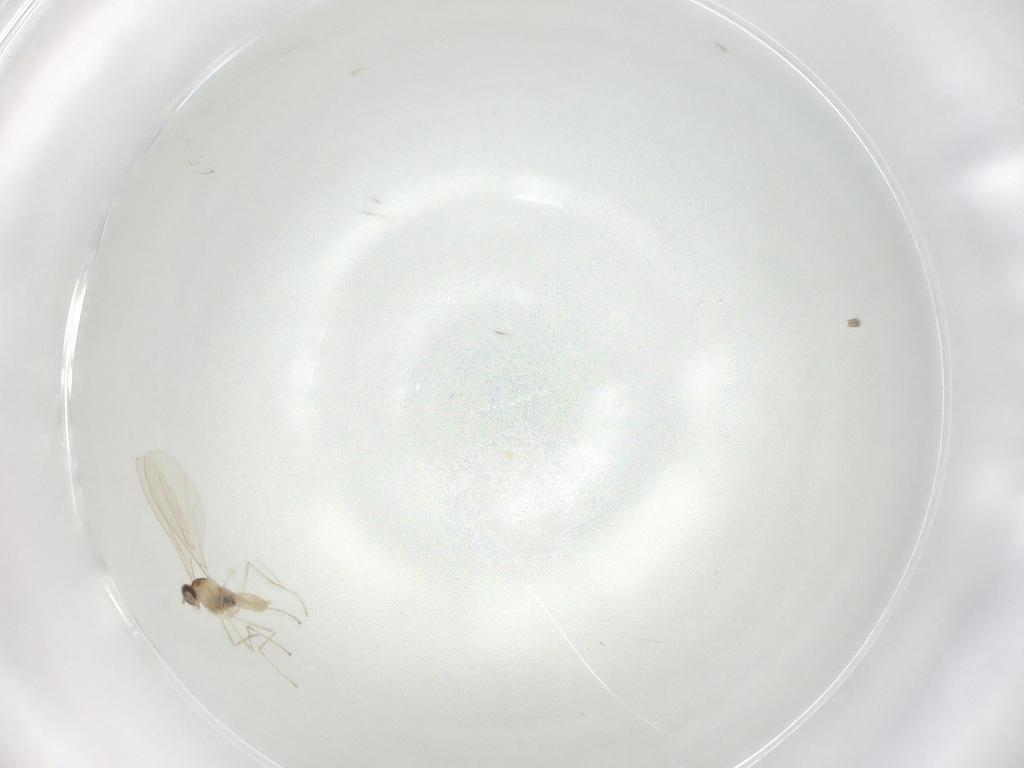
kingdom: Animalia
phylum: Arthropoda
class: Insecta
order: Diptera
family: Cecidomyiidae
